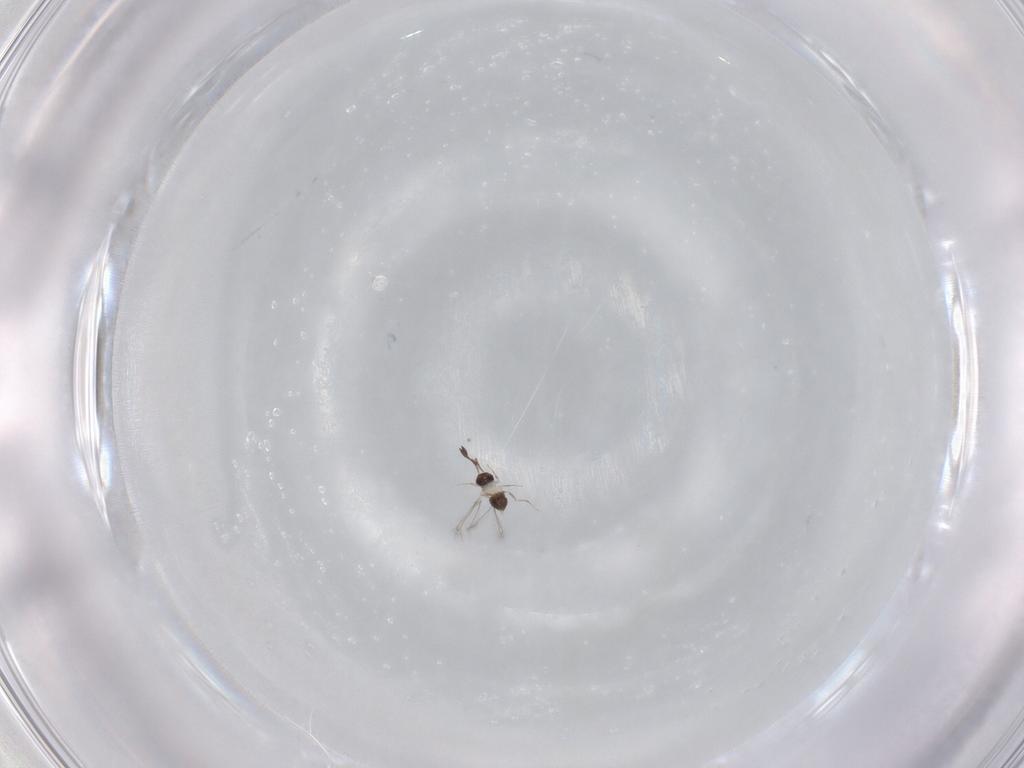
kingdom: Animalia
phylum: Arthropoda
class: Insecta
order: Hymenoptera
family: Mymaridae
